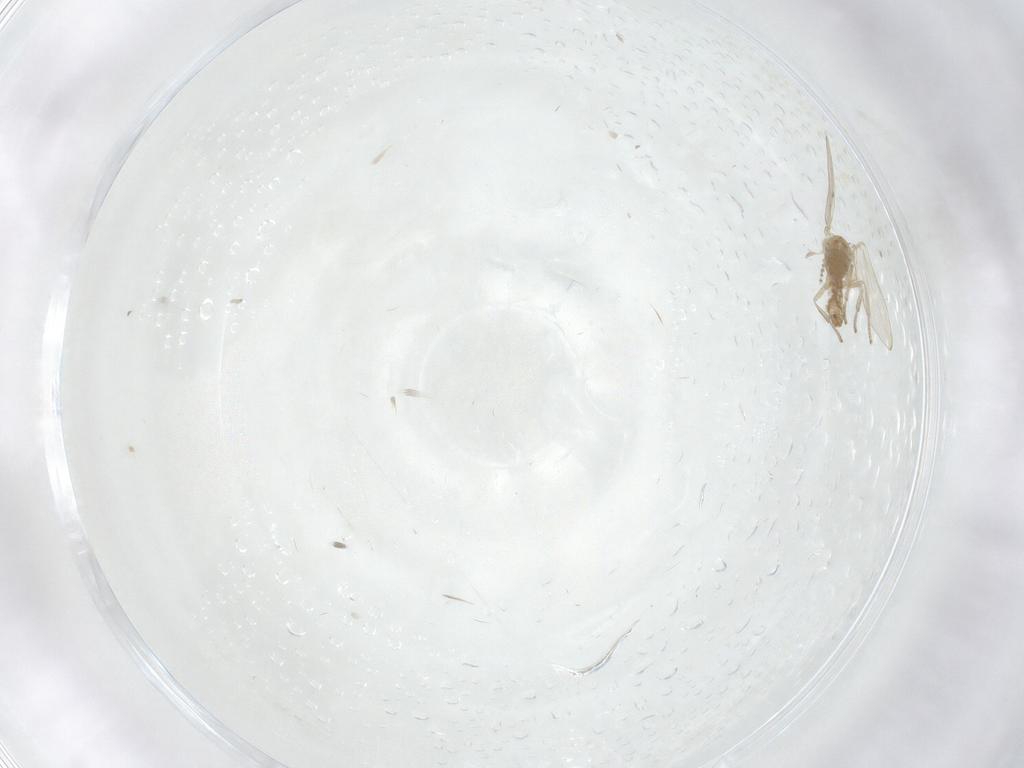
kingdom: Animalia
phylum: Arthropoda
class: Insecta
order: Diptera
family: Psychodidae
